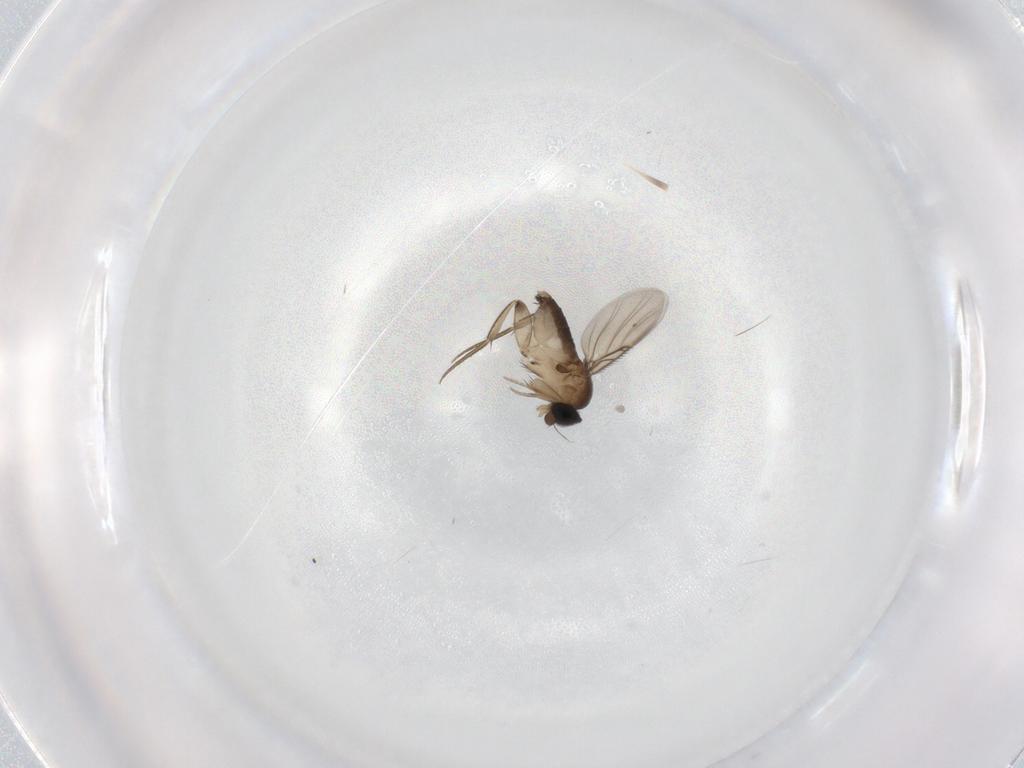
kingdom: Animalia
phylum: Arthropoda
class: Insecta
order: Diptera
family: Phoridae
